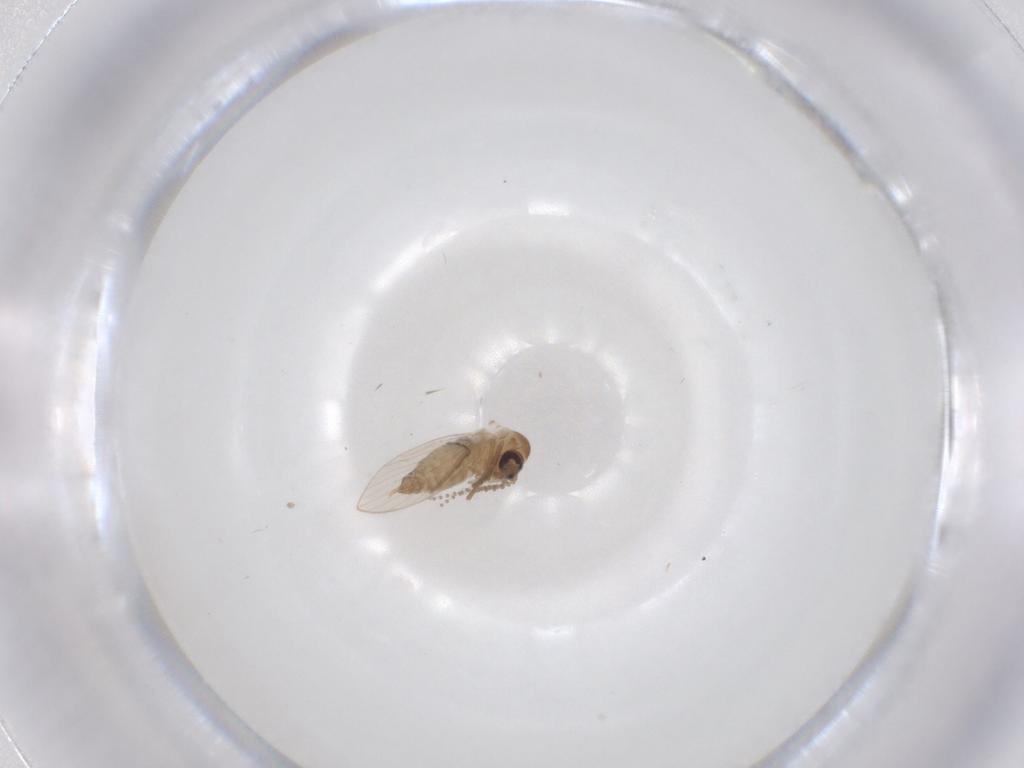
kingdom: Animalia
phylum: Arthropoda
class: Insecta
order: Diptera
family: Psychodidae
